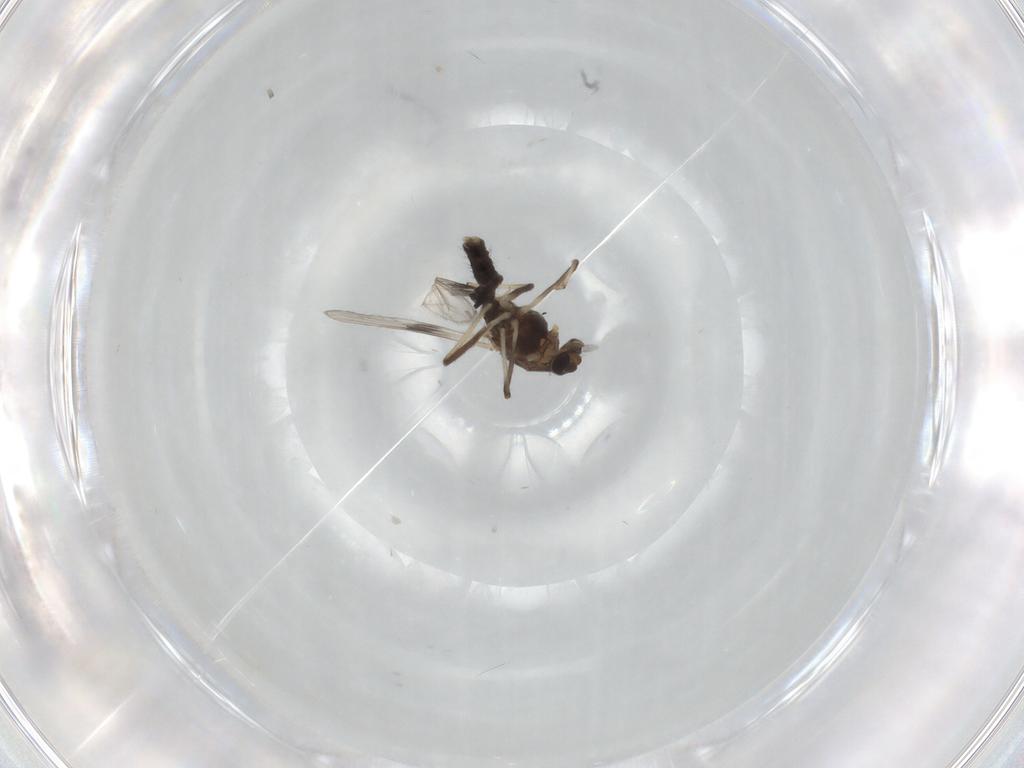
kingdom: Animalia
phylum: Arthropoda
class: Insecta
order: Diptera
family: Chironomidae
